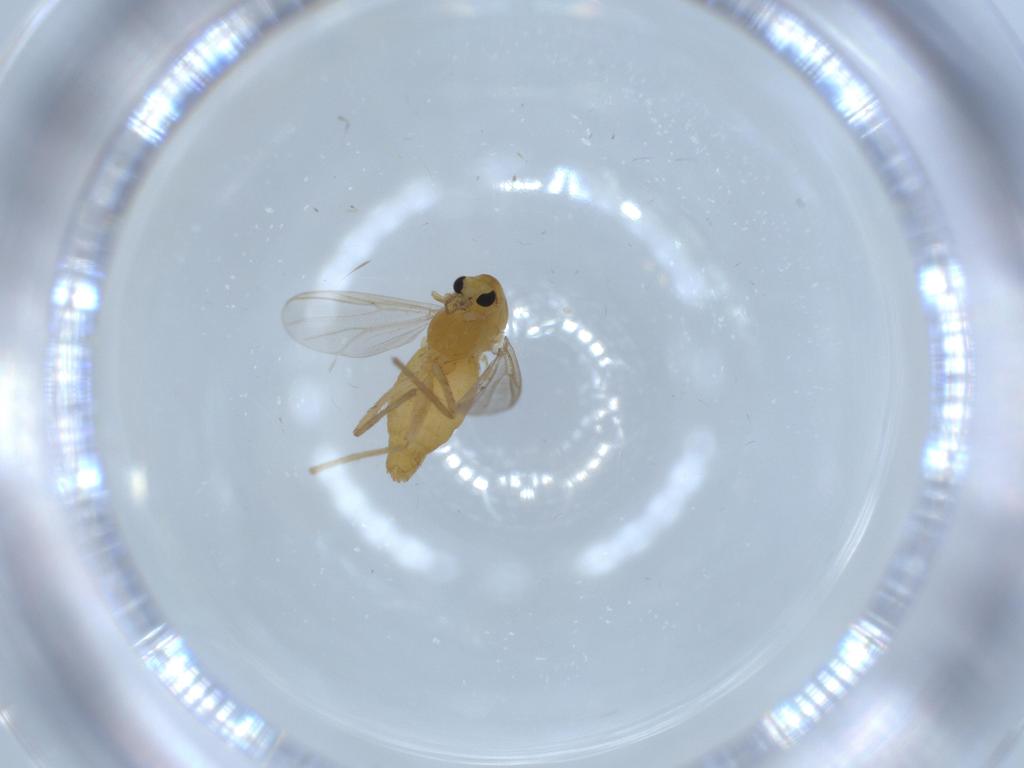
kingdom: Animalia
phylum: Arthropoda
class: Insecta
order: Diptera
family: Chironomidae
